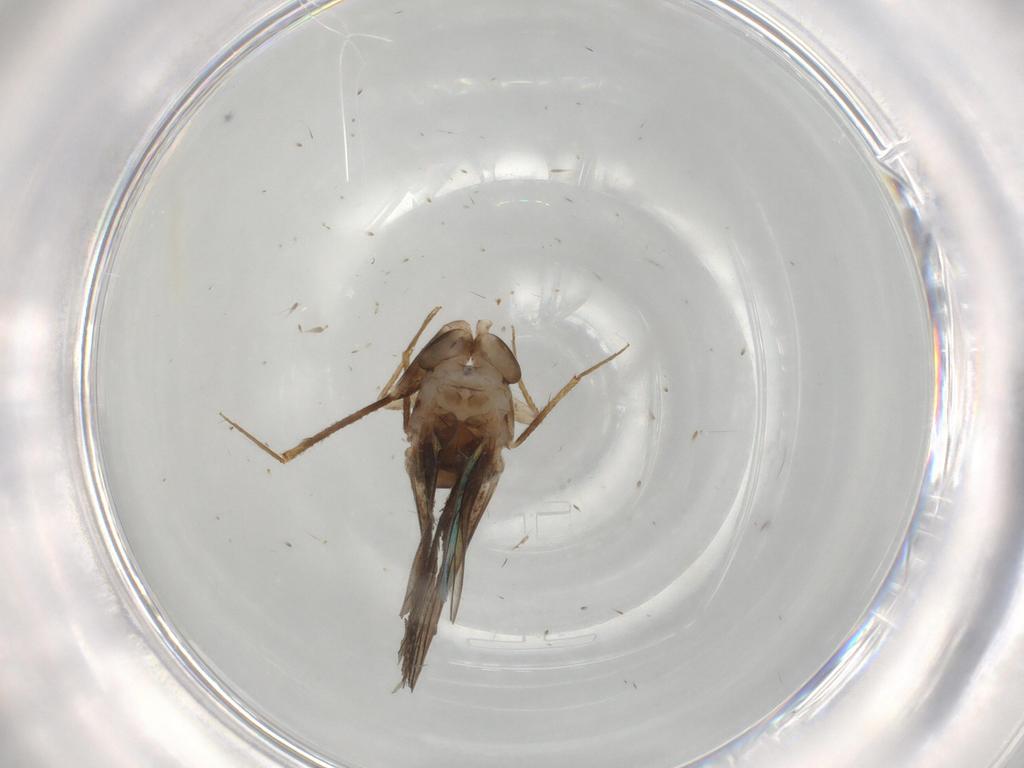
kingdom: Animalia
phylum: Arthropoda
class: Insecta
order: Psocodea
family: Lepidopsocidae
